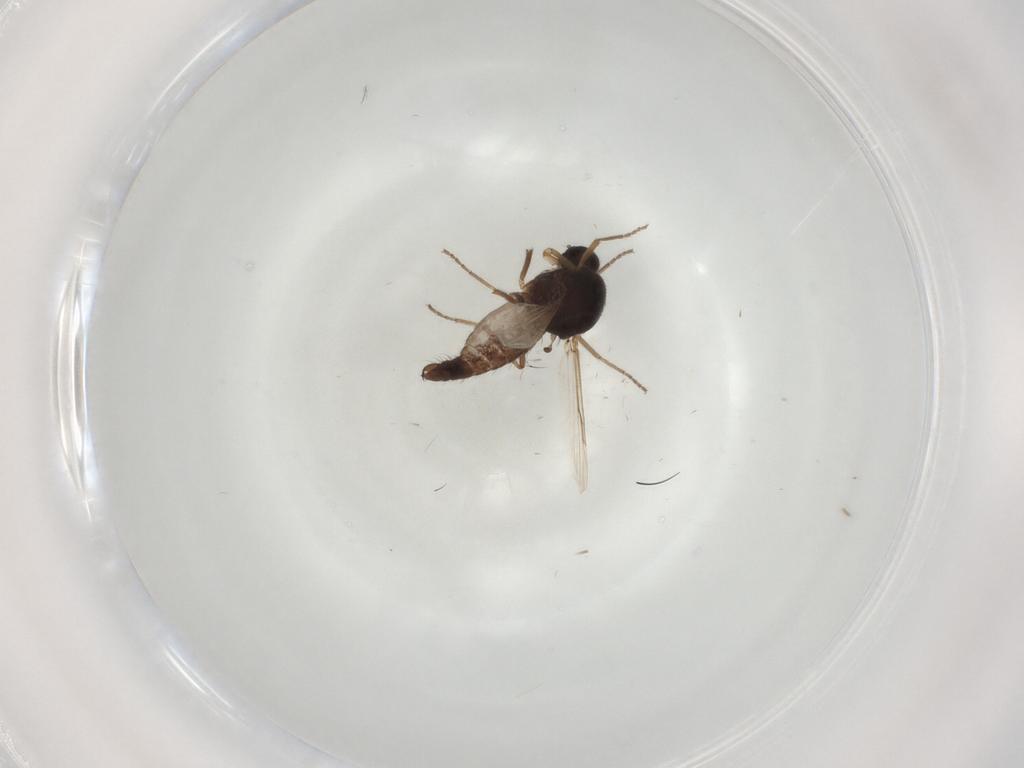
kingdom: Animalia
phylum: Arthropoda
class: Insecta
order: Diptera
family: Ceratopogonidae
